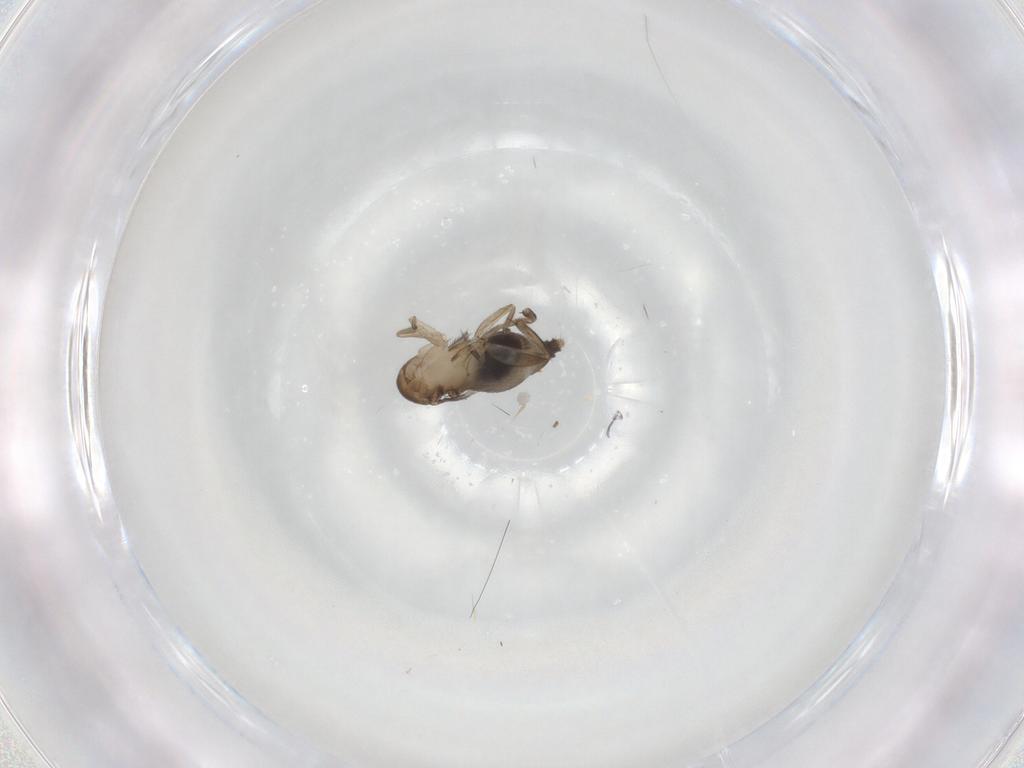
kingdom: Animalia
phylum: Arthropoda
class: Insecta
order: Diptera
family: Phoridae
